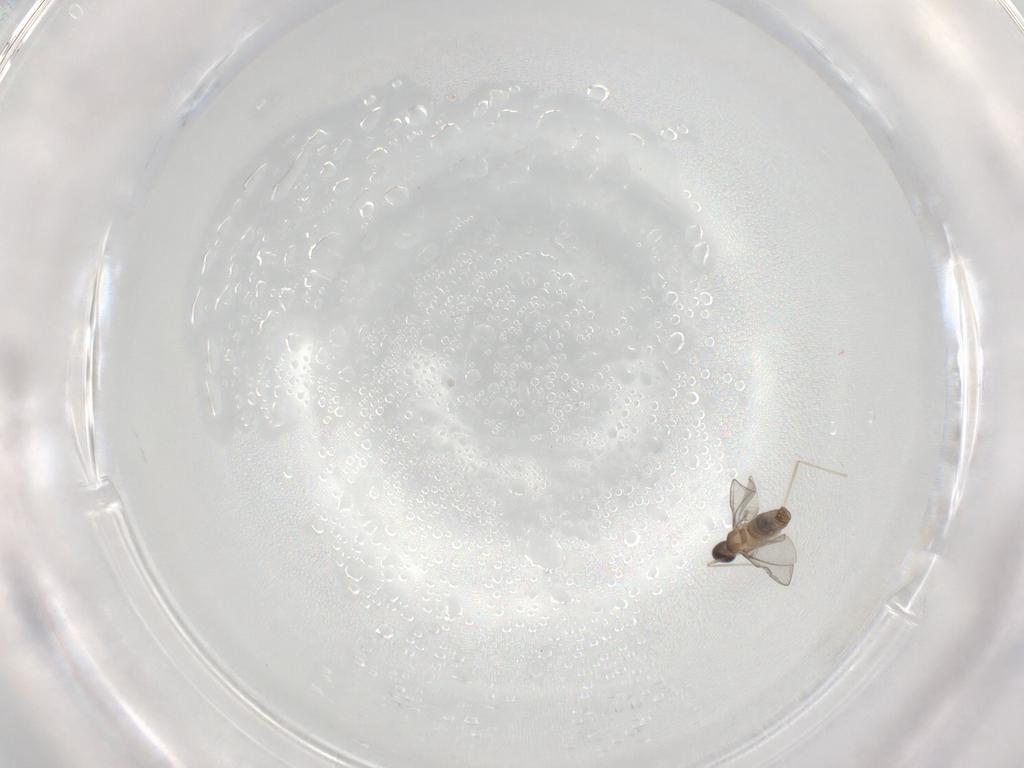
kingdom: Animalia
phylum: Arthropoda
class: Insecta
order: Diptera
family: Cecidomyiidae
